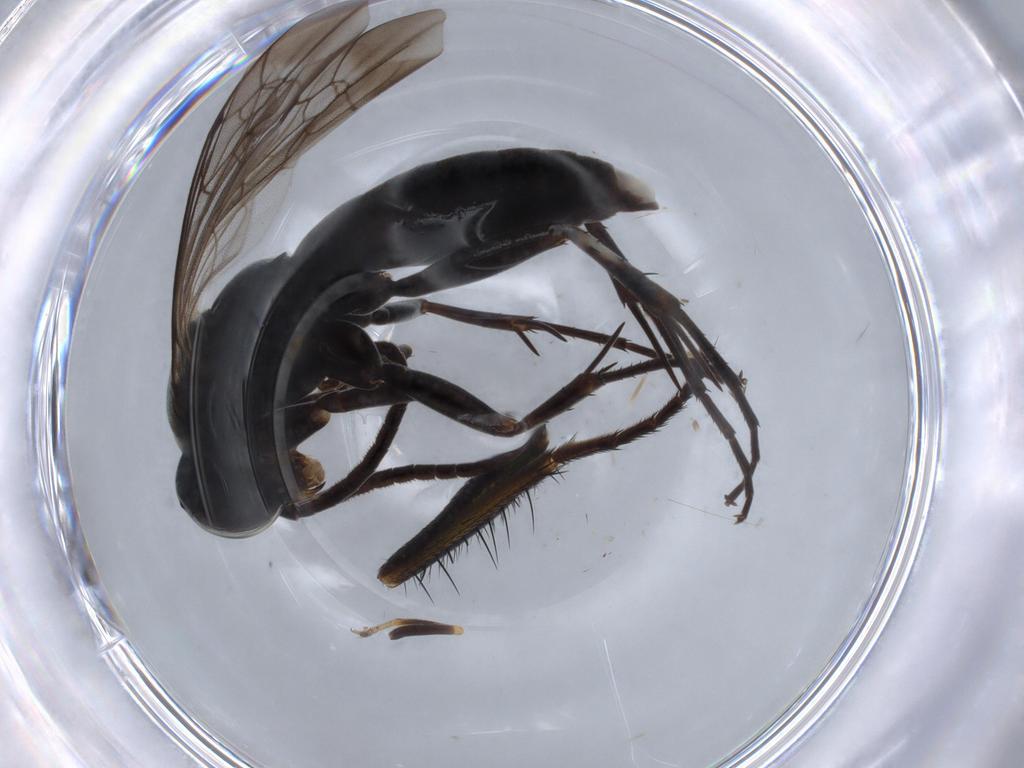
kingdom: Animalia
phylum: Arthropoda
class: Insecta
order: Hymenoptera
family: Pompilidae
